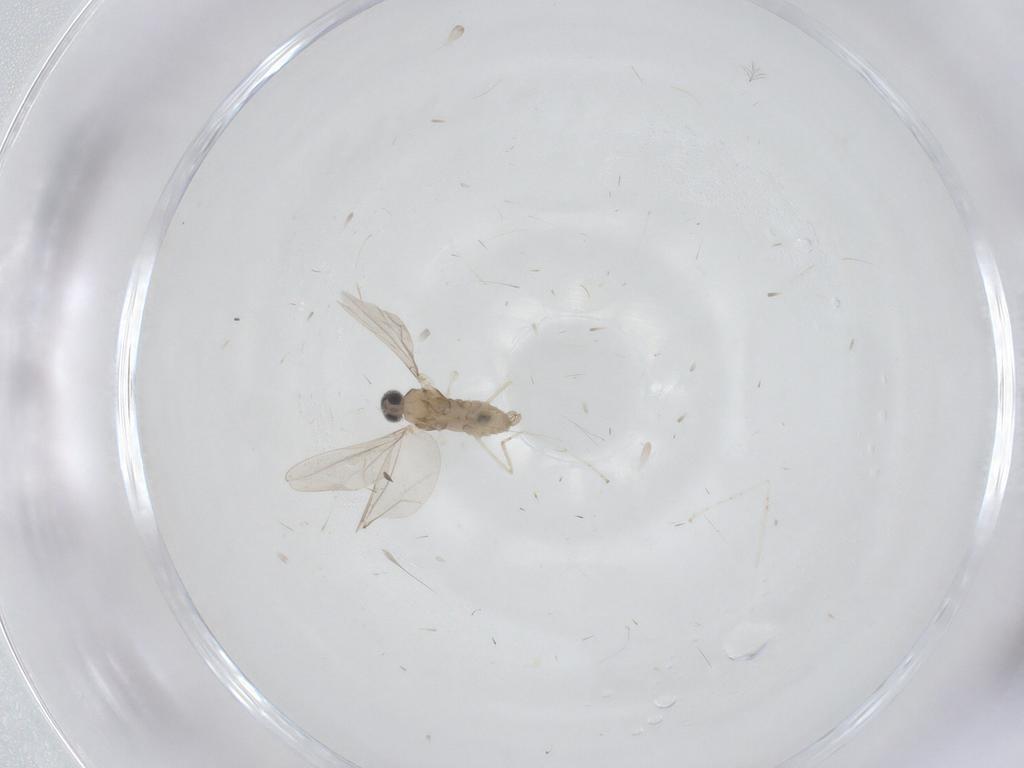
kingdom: Animalia
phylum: Arthropoda
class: Insecta
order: Diptera
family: Cecidomyiidae
